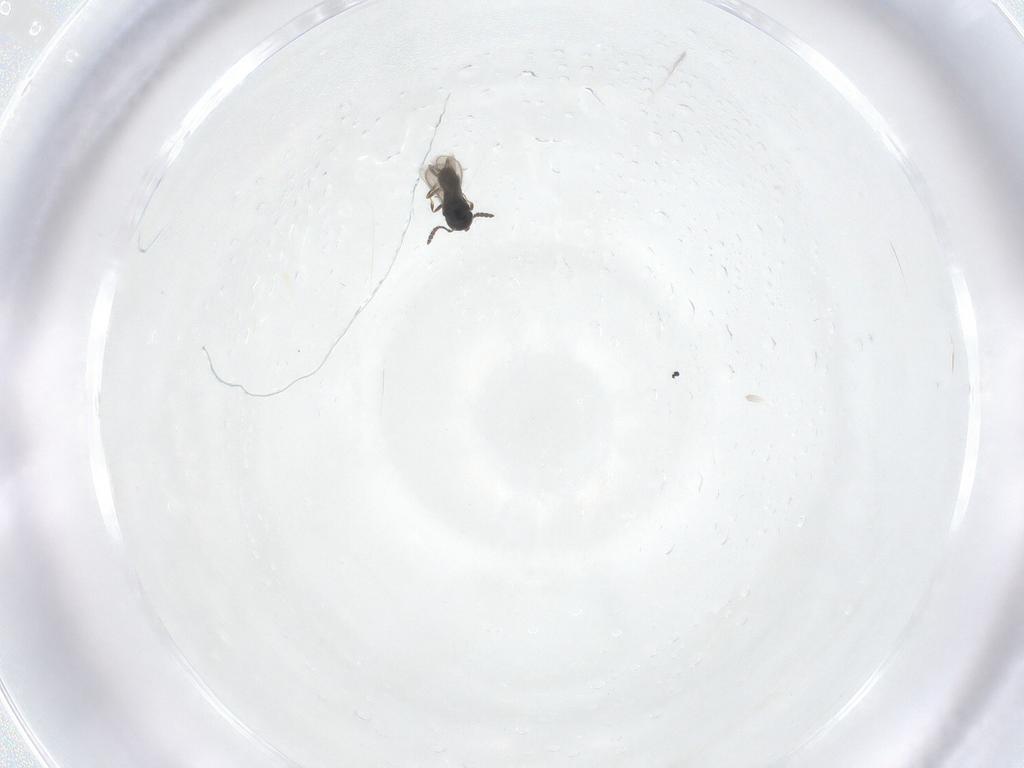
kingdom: Animalia
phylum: Arthropoda
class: Insecta
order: Hymenoptera
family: Scelionidae
